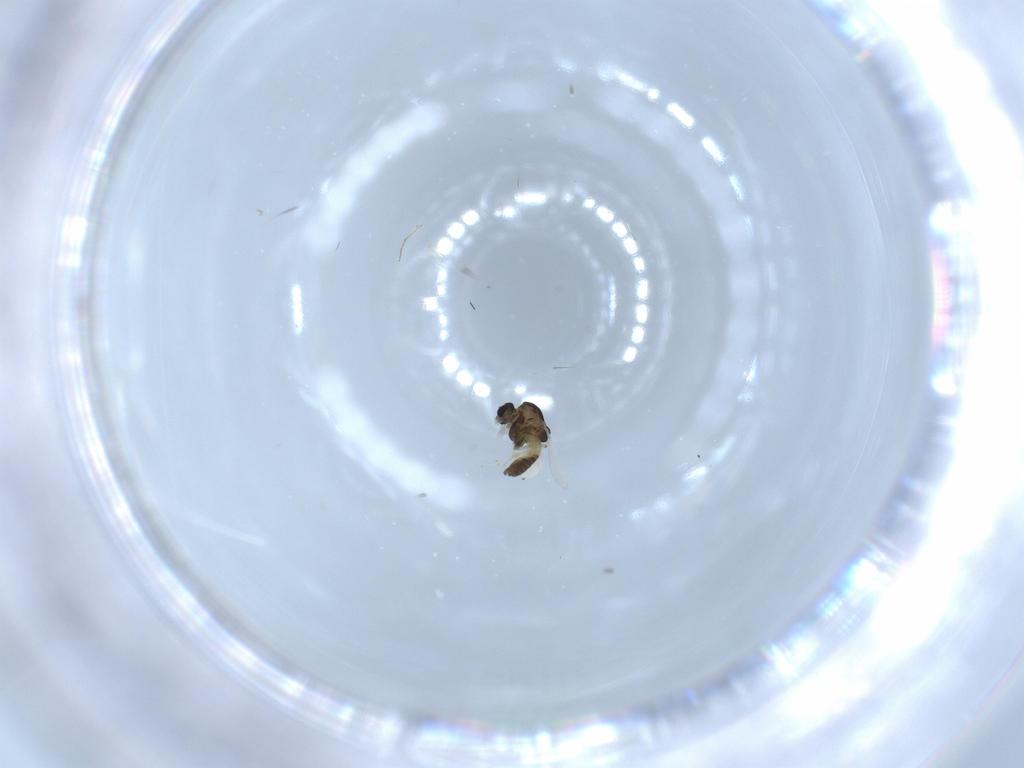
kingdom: Animalia
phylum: Arthropoda
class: Insecta
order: Diptera
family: Chironomidae
